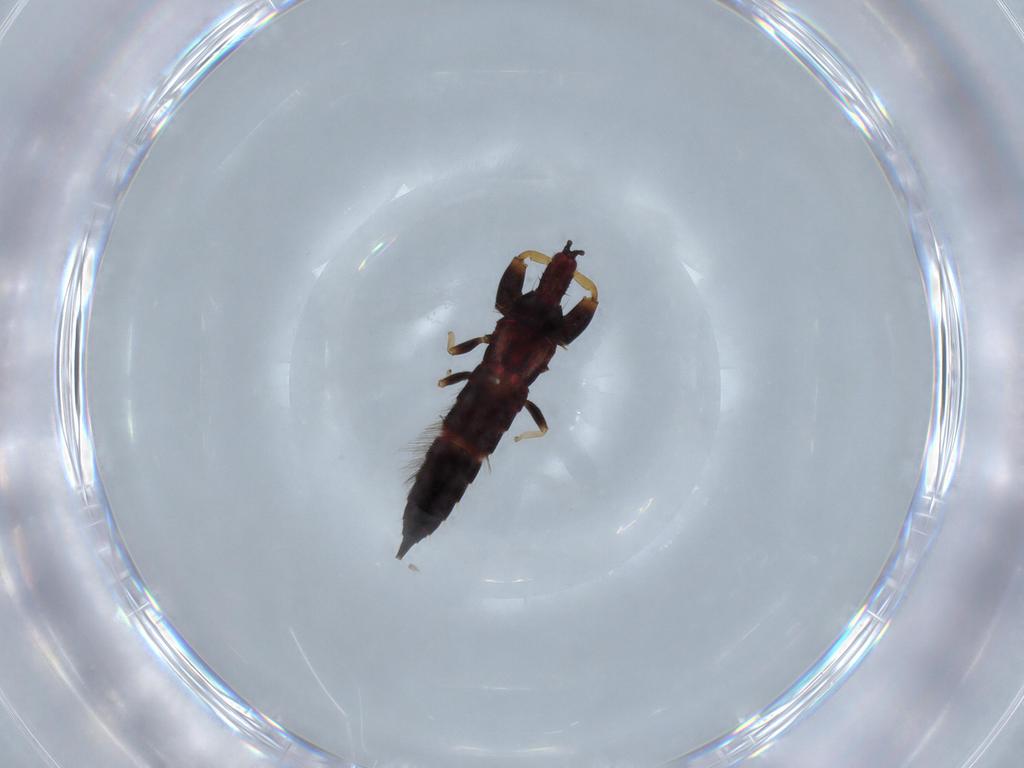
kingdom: Animalia
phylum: Arthropoda
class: Insecta
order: Thysanoptera
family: Phlaeothripidae
